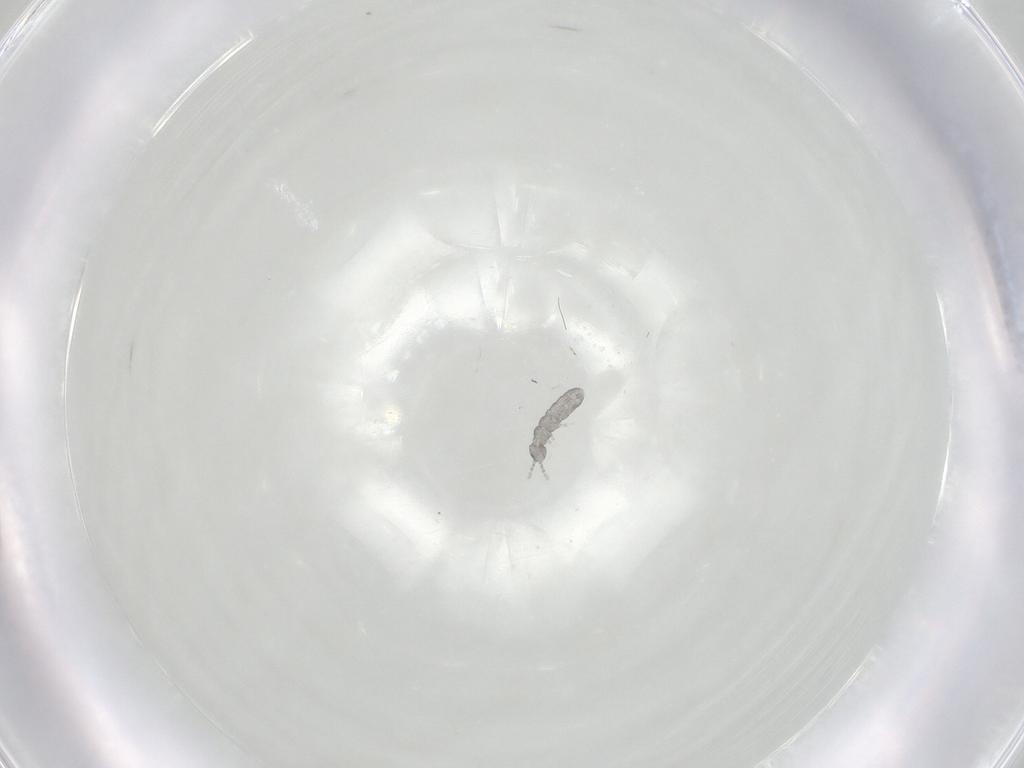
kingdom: Animalia
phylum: Arthropoda
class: Collembola
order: Entomobryomorpha
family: Isotomidae
